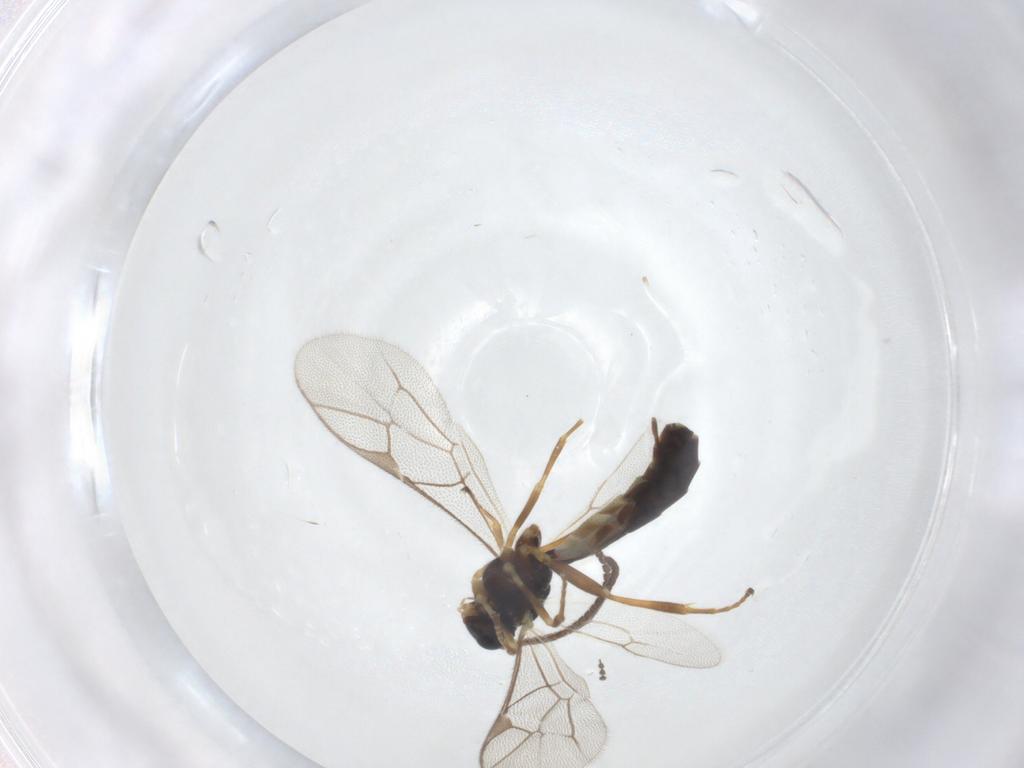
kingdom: Animalia
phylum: Arthropoda
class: Insecta
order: Hymenoptera
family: Ichneumonidae
